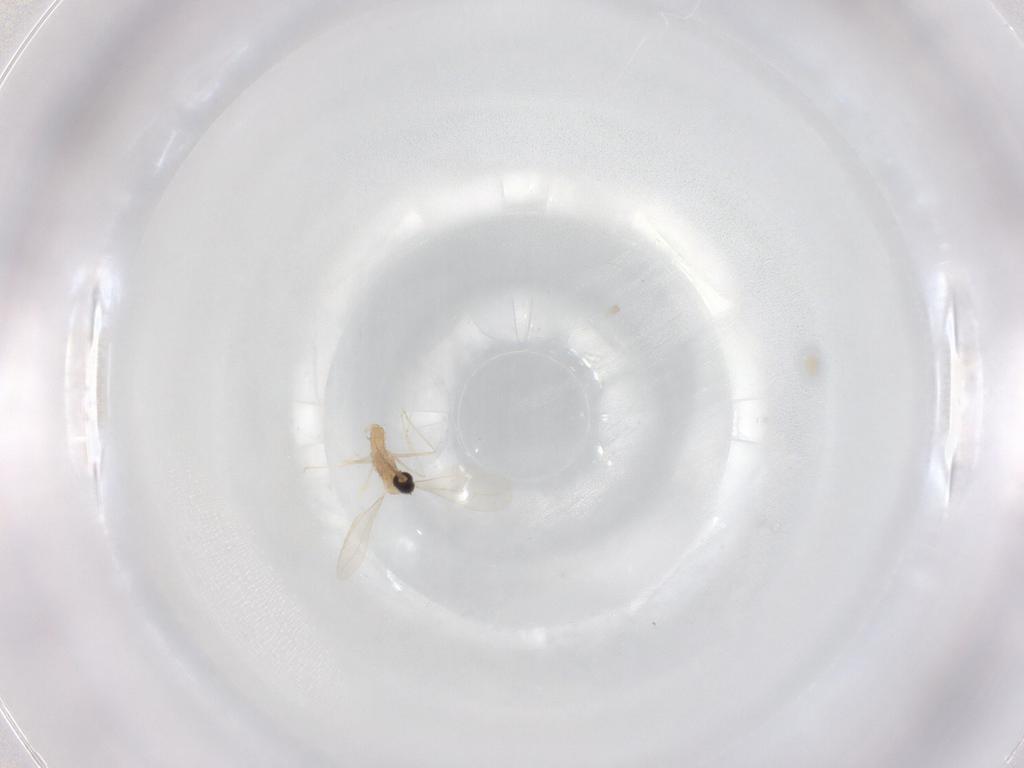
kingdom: Animalia
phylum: Arthropoda
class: Insecta
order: Diptera
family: Cecidomyiidae
